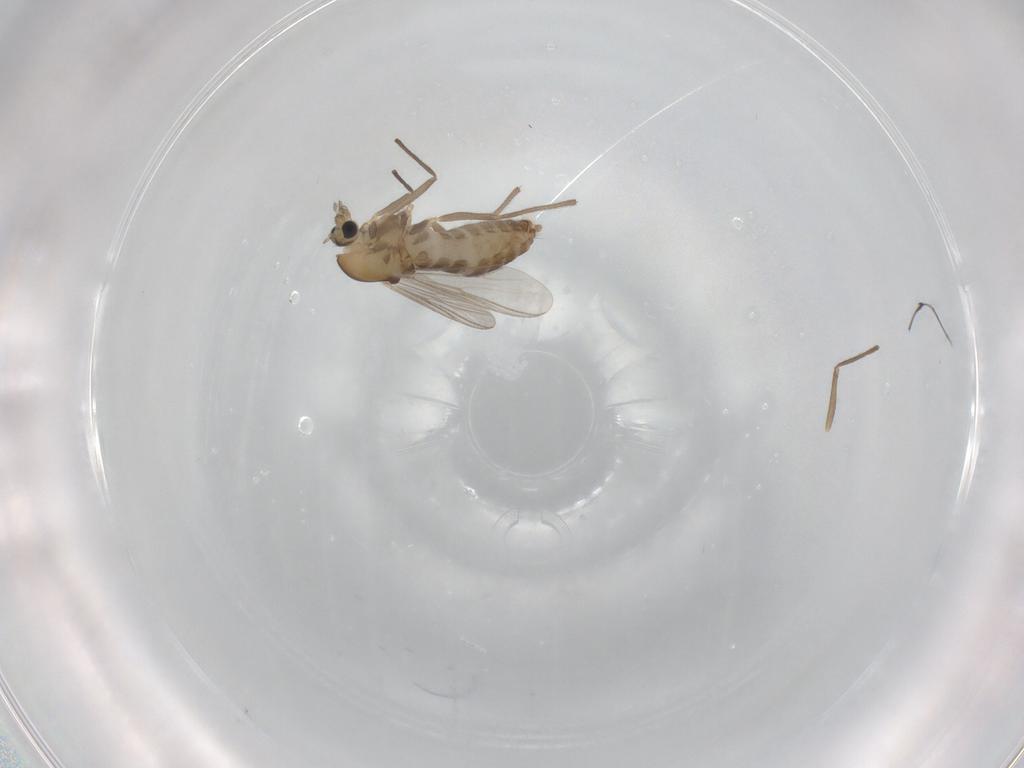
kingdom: Animalia
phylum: Arthropoda
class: Insecta
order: Diptera
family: Chironomidae
